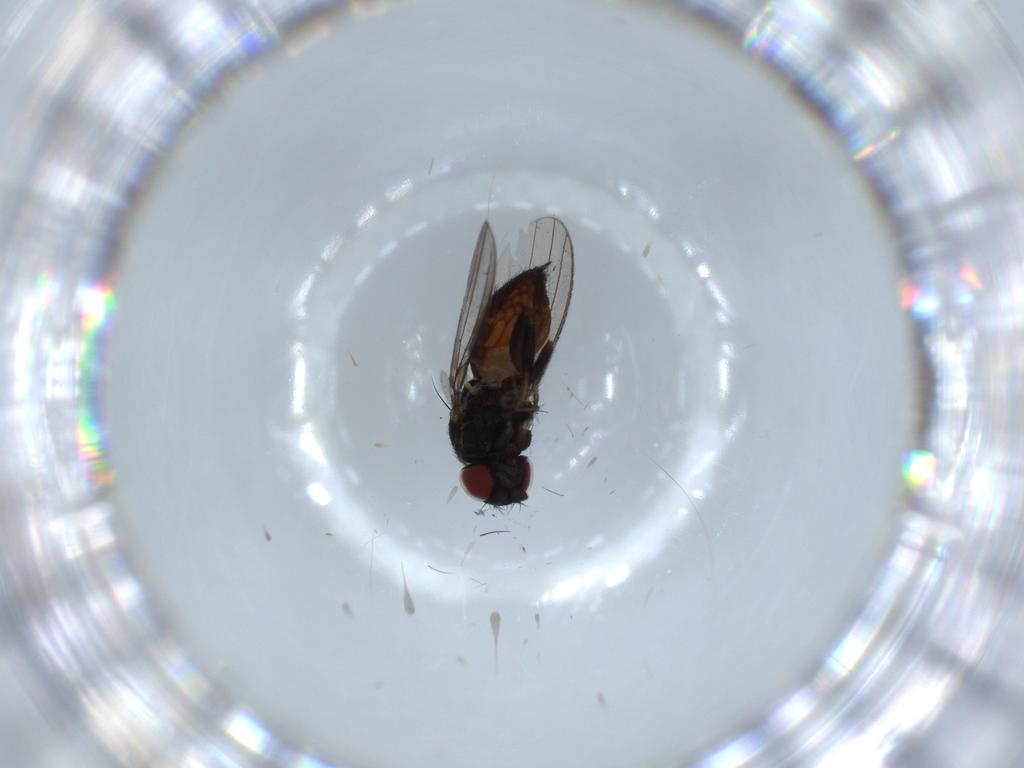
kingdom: Animalia
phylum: Arthropoda
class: Insecta
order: Diptera
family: Milichiidae
